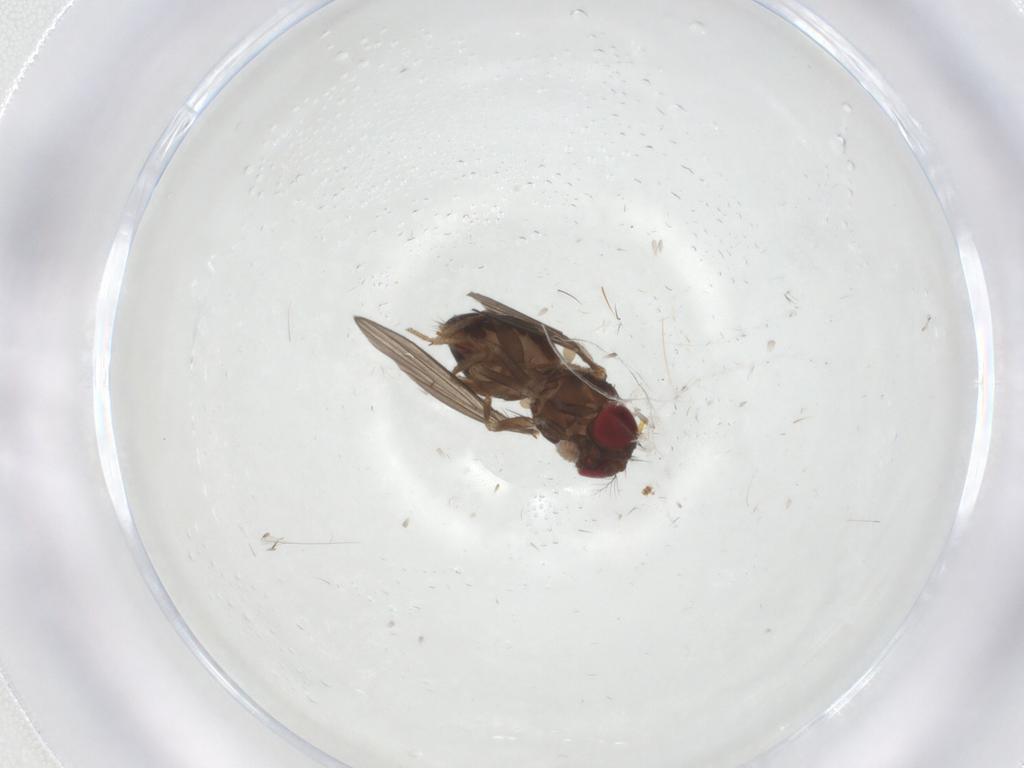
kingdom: Animalia
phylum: Arthropoda
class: Insecta
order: Diptera
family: Drosophilidae
